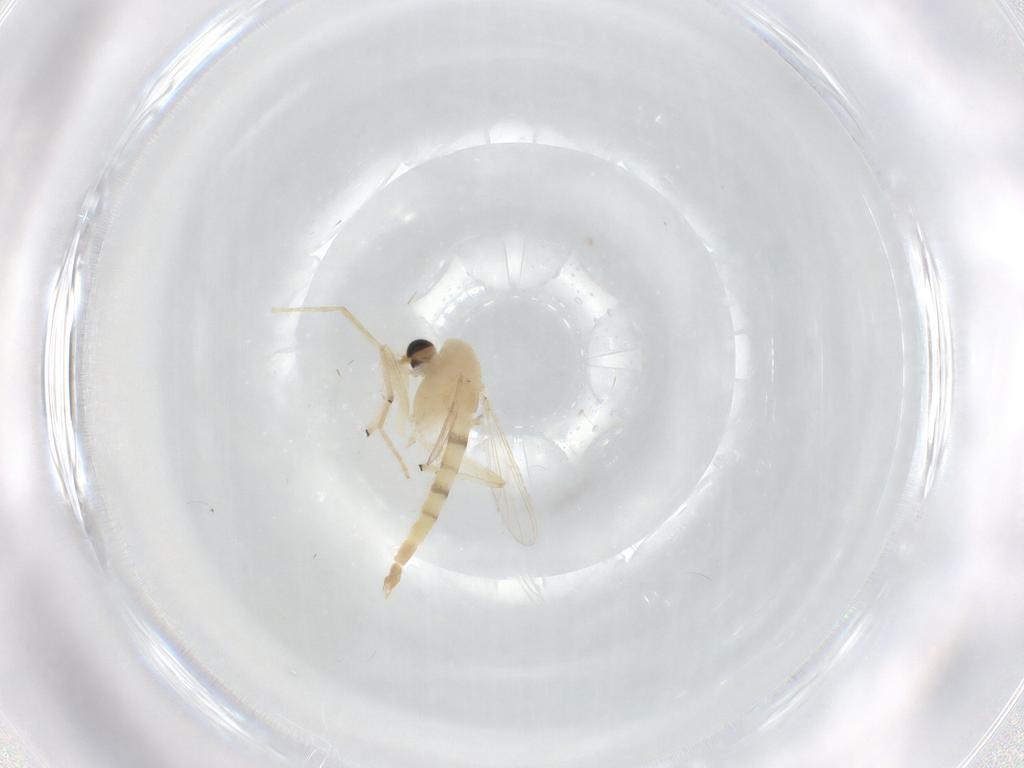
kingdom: Animalia
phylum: Arthropoda
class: Insecta
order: Diptera
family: Chironomidae
